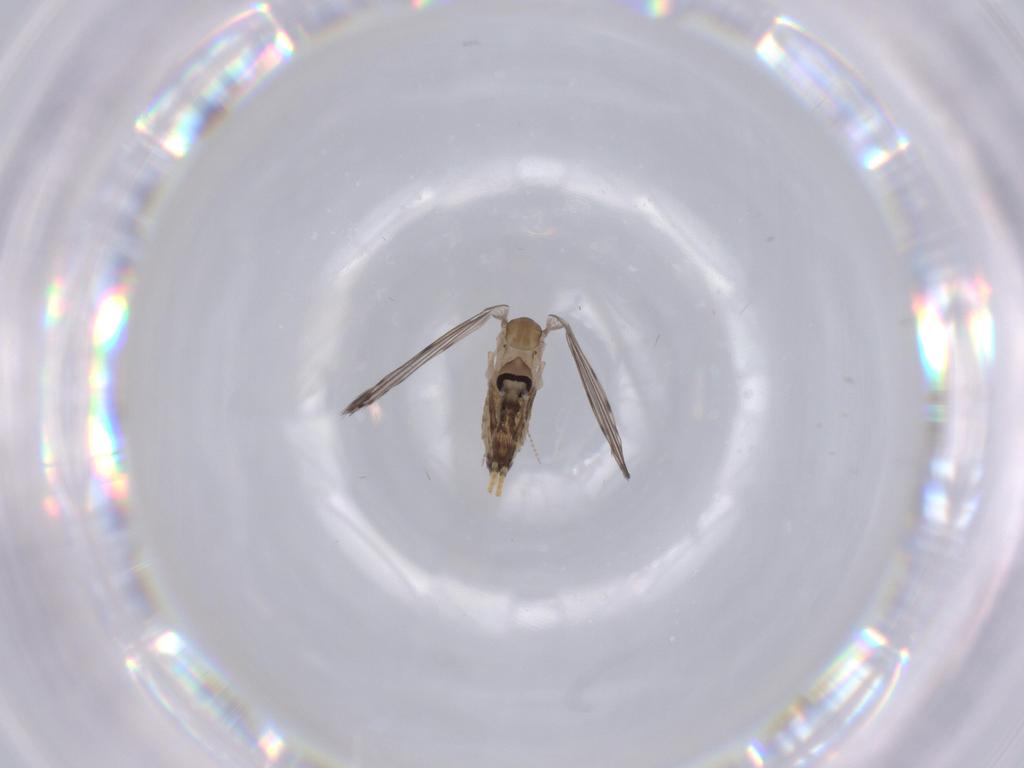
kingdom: Animalia
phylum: Arthropoda
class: Insecta
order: Diptera
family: Psychodidae
